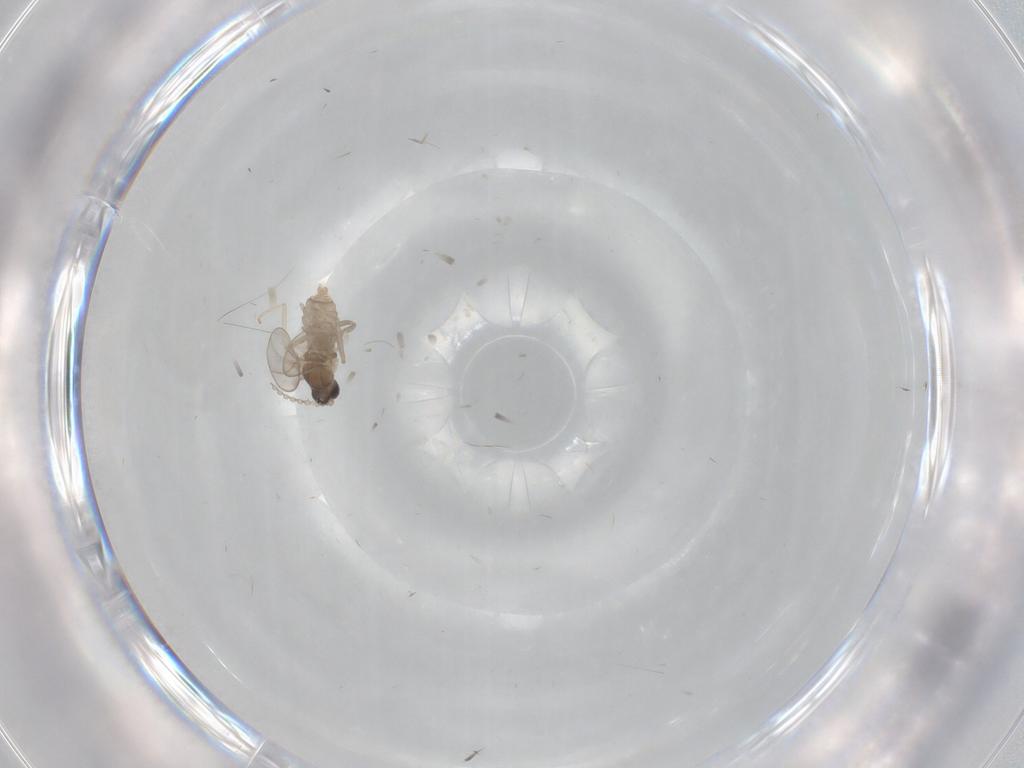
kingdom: Animalia
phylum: Arthropoda
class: Insecta
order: Diptera
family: Cecidomyiidae
